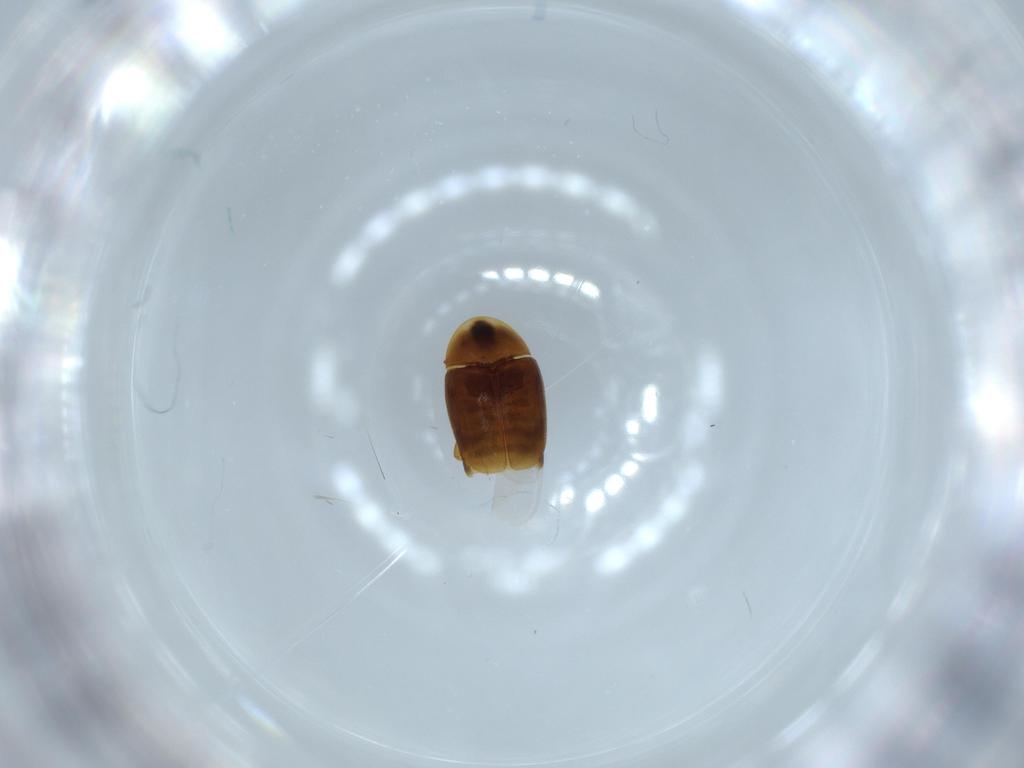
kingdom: Animalia
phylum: Arthropoda
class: Insecta
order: Coleoptera
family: Corylophidae
